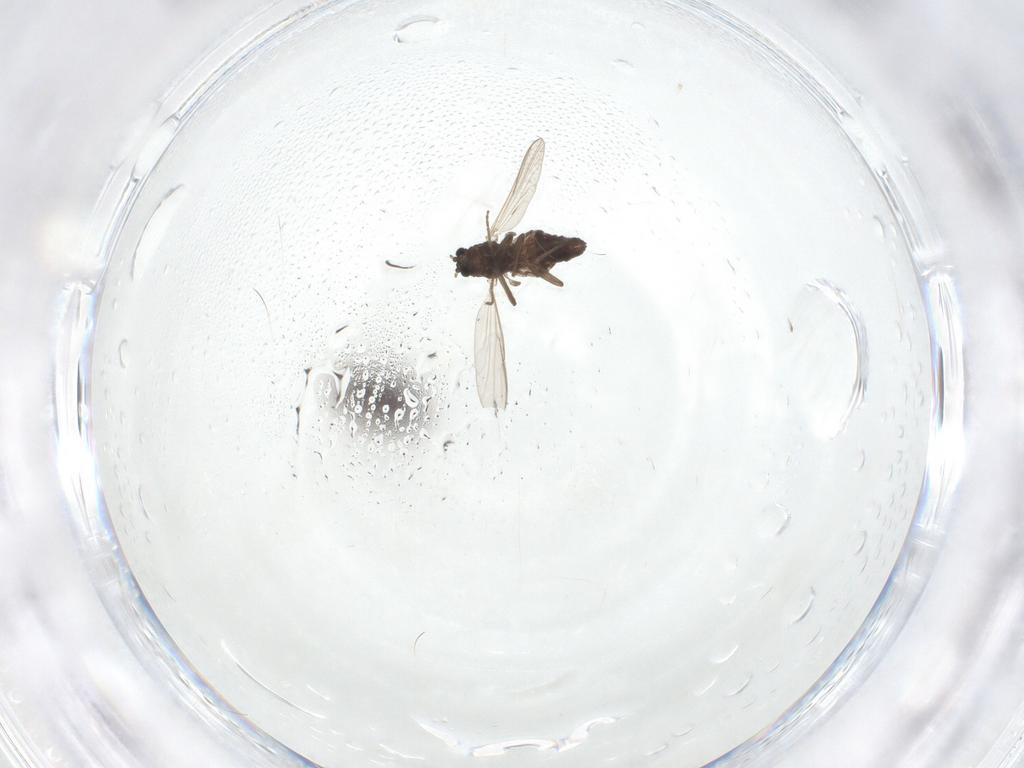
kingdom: Animalia
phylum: Arthropoda
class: Insecta
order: Diptera
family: Chironomidae
